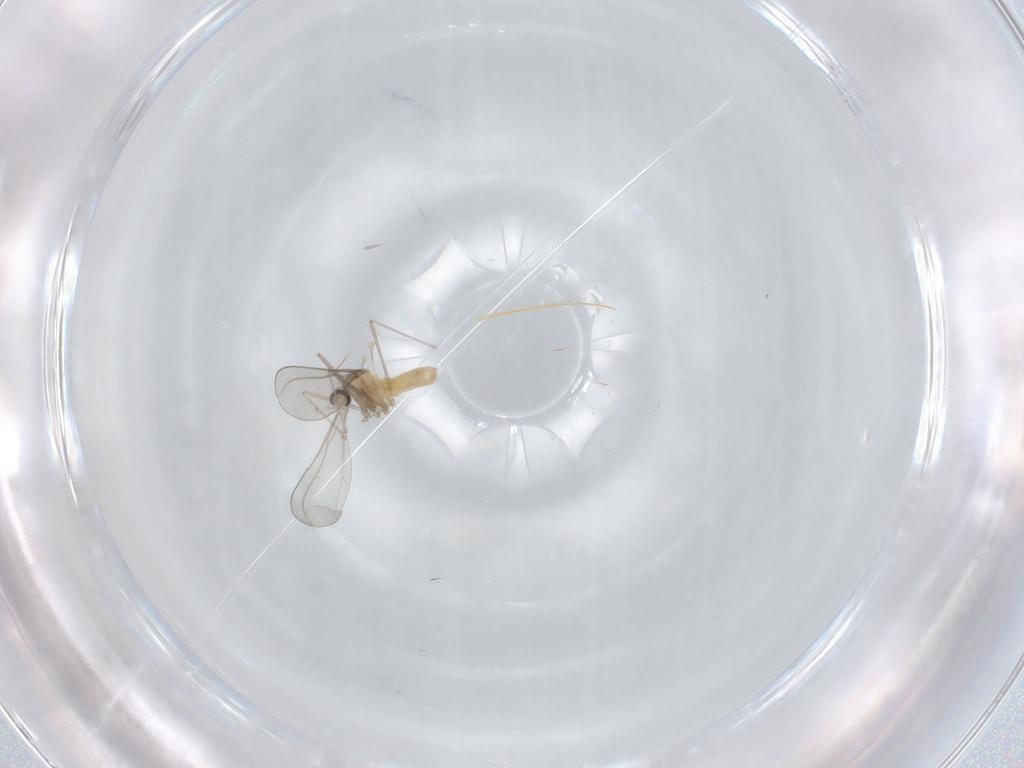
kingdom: Animalia
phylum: Arthropoda
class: Insecta
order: Diptera
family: Cecidomyiidae
